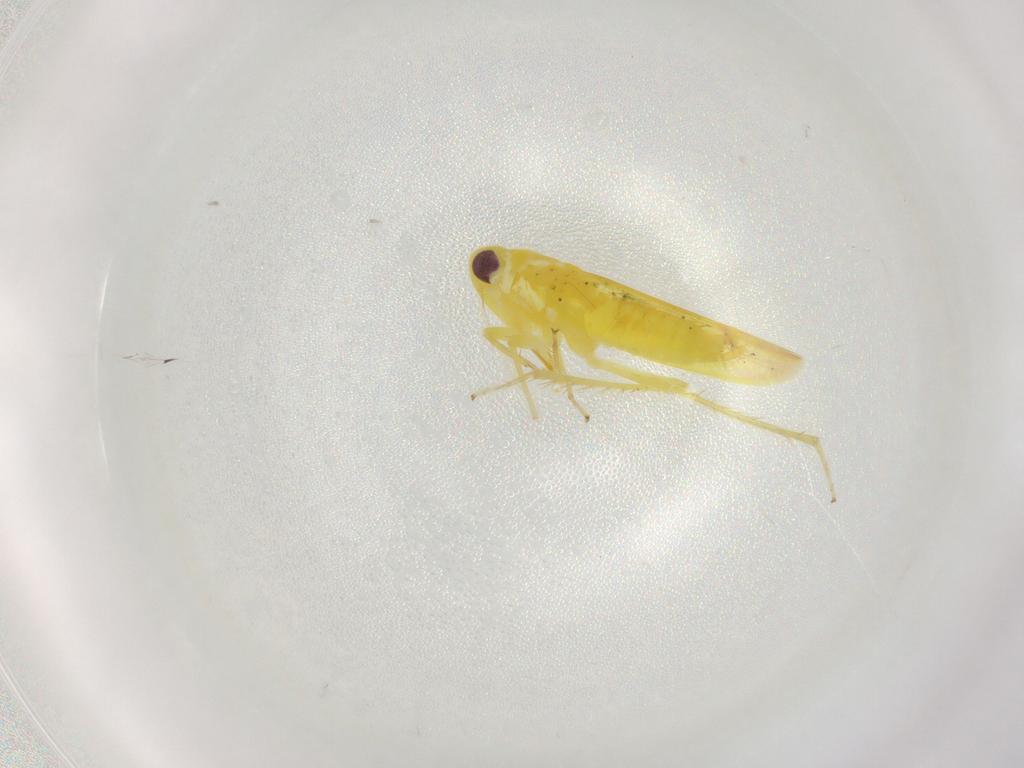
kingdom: Animalia
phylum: Arthropoda
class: Insecta
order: Hemiptera
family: Cicadellidae
